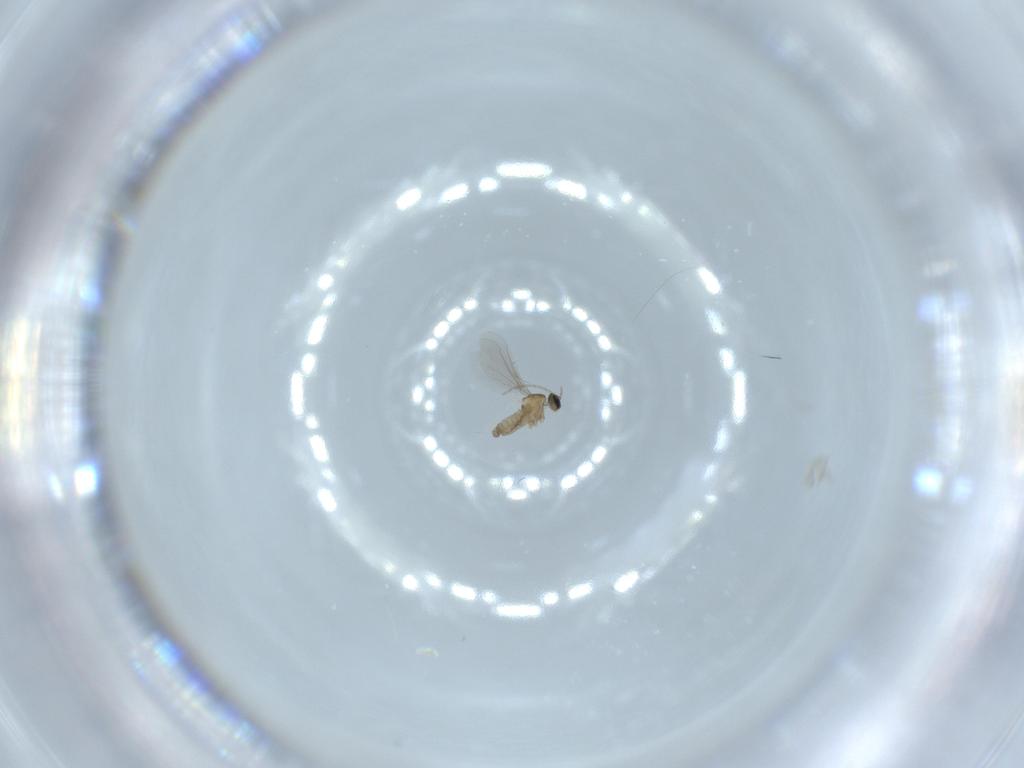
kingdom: Animalia
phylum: Arthropoda
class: Insecta
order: Diptera
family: Cecidomyiidae
